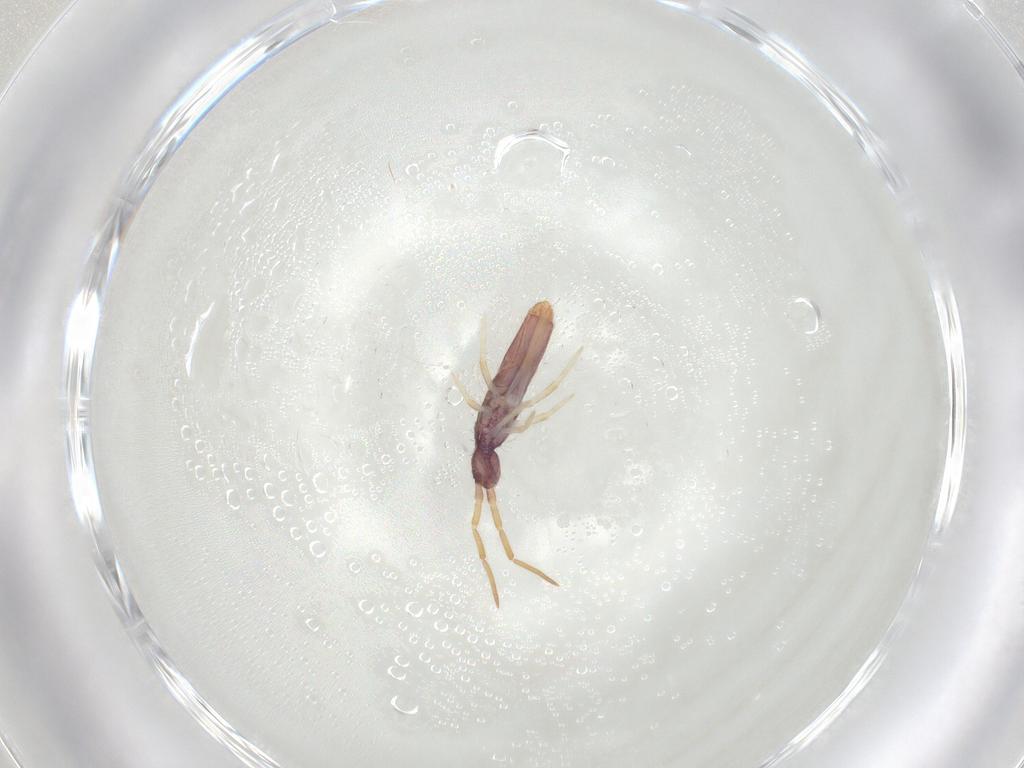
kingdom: Animalia
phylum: Arthropoda
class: Collembola
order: Entomobryomorpha
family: Entomobryidae
